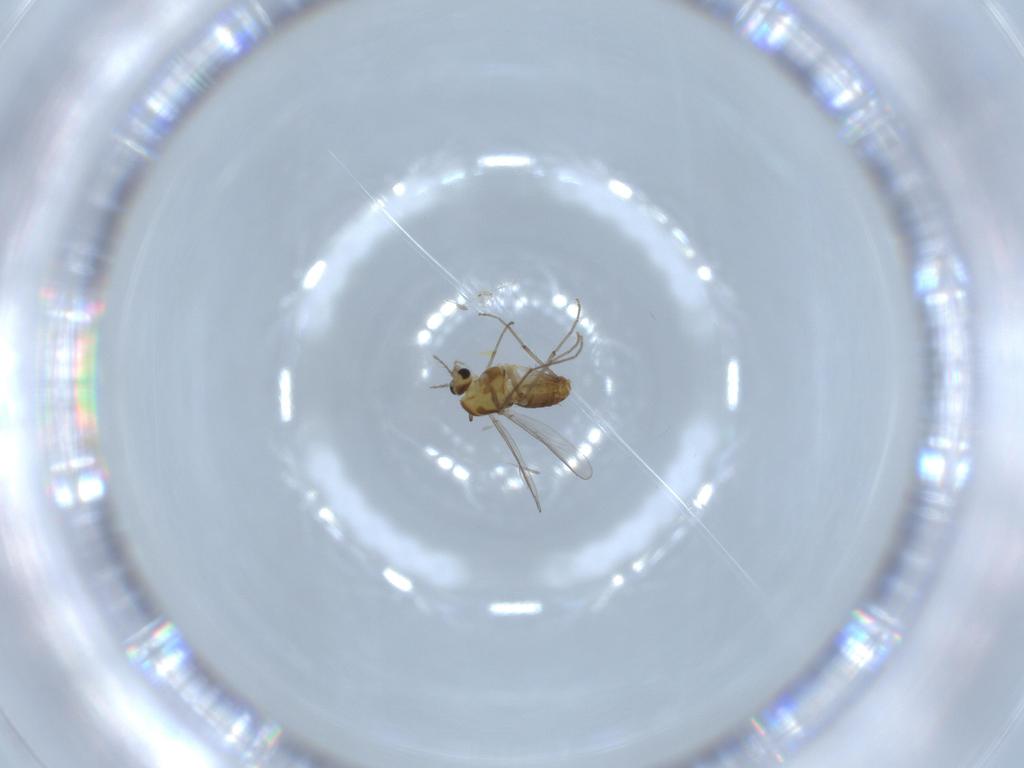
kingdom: Animalia
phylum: Arthropoda
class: Insecta
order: Diptera
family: Chironomidae
